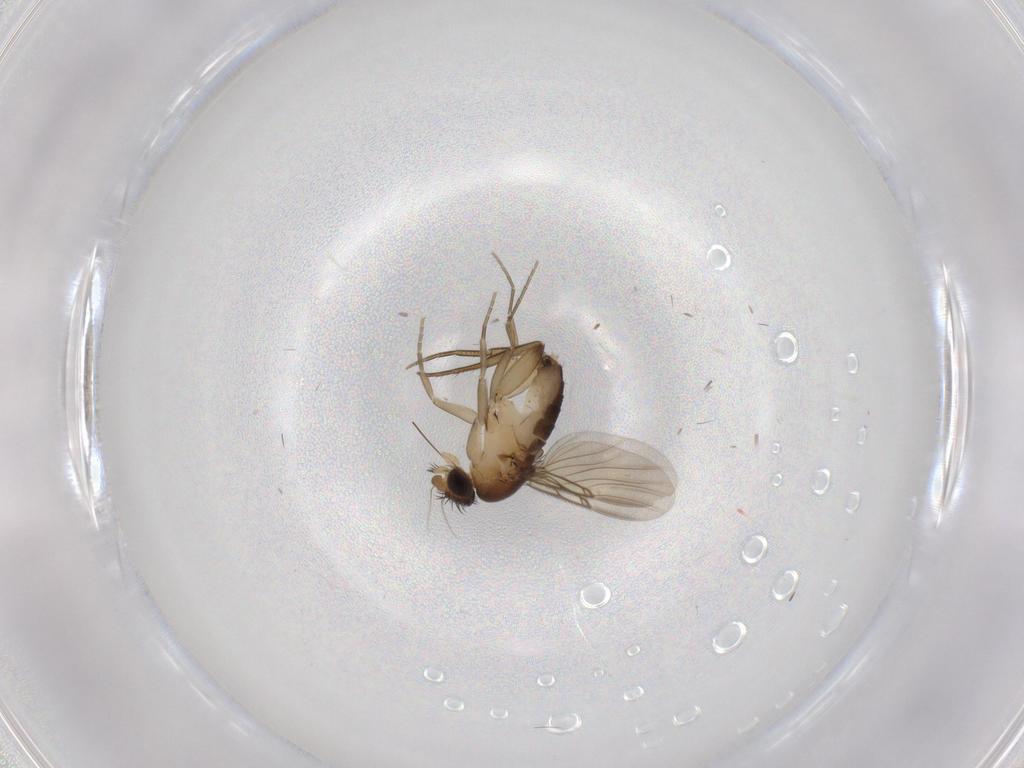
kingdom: Animalia
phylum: Arthropoda
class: Insecta
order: Diptera
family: Phoridae
